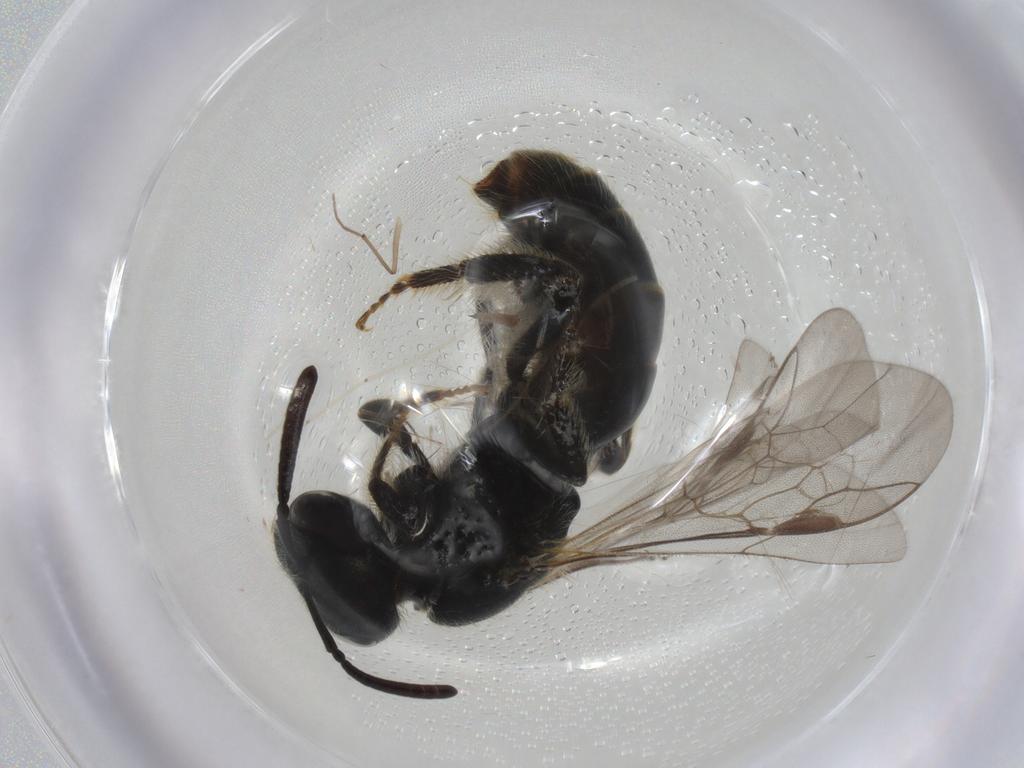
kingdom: Animalia
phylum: Arthropoda
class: Insecta
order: Hymenoptera
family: Scelionidae
